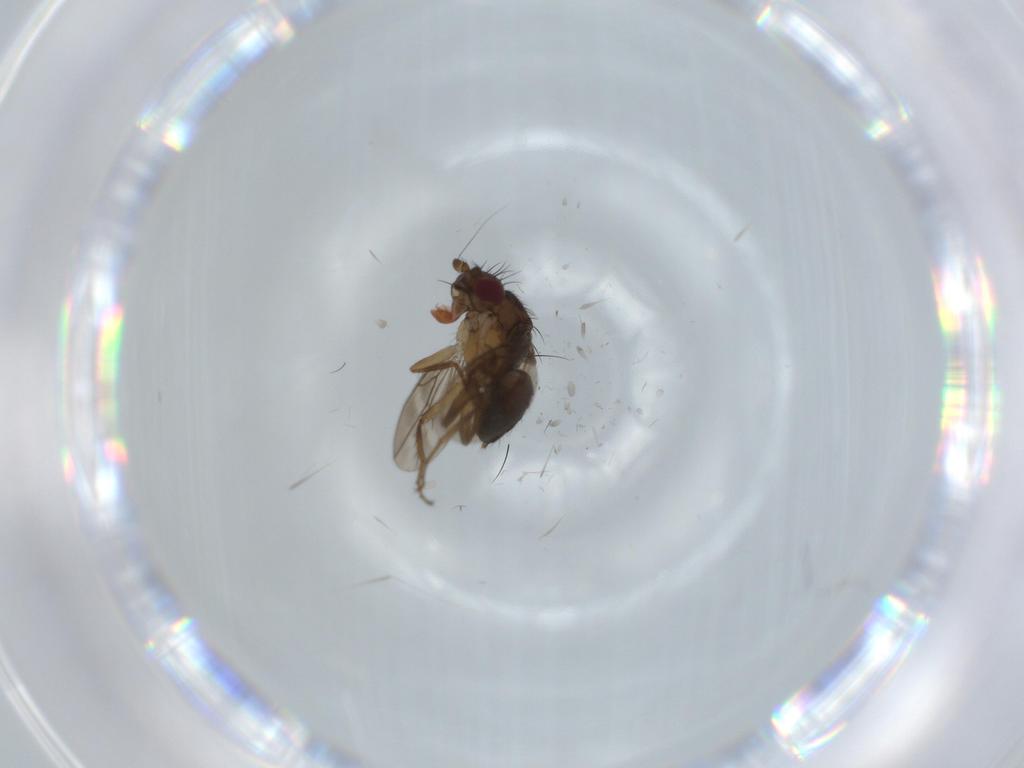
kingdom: Animalia
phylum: Arthropoda
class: Insecta
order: Diptera
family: Sphaeroceridae
